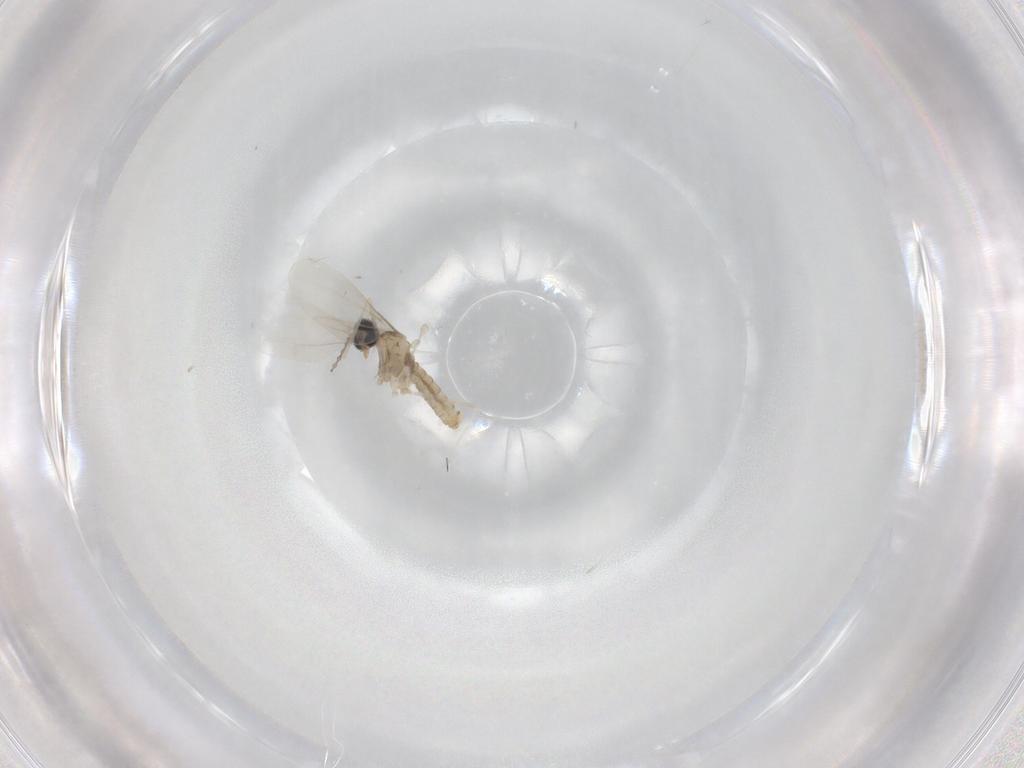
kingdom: Animalia
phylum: Arthropoda
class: Insecta
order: Diptera
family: Cecidomyiidae
